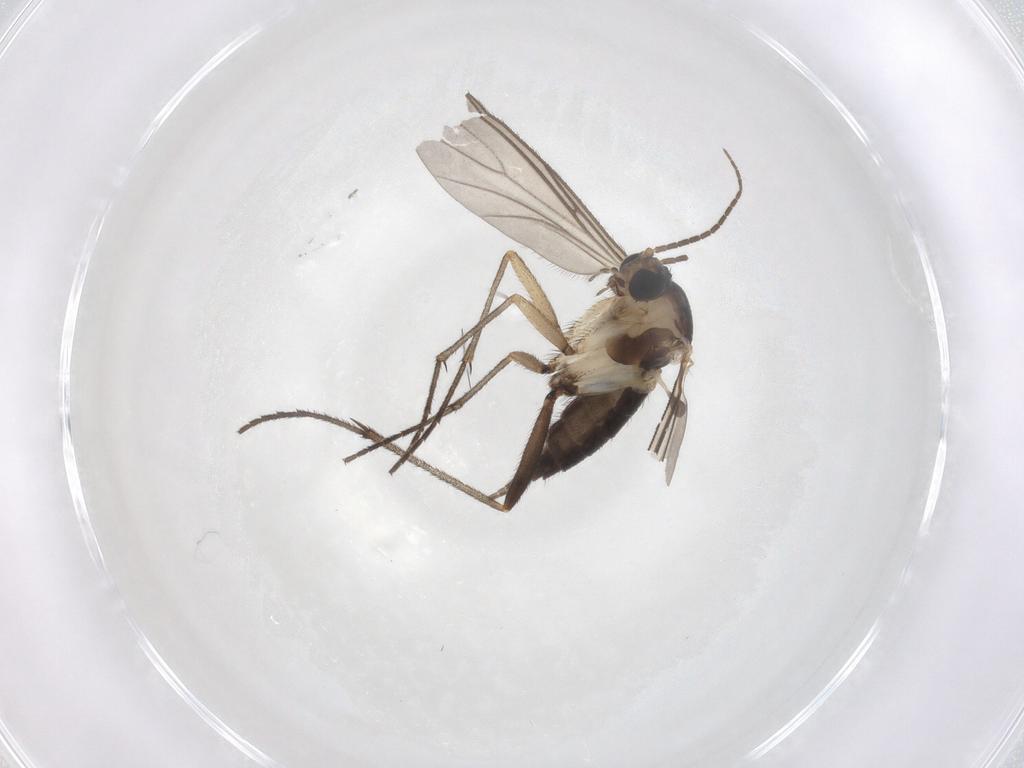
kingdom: Animalia
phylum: Arthropoda
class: Insecta
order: Diptera
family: Sciaridae
